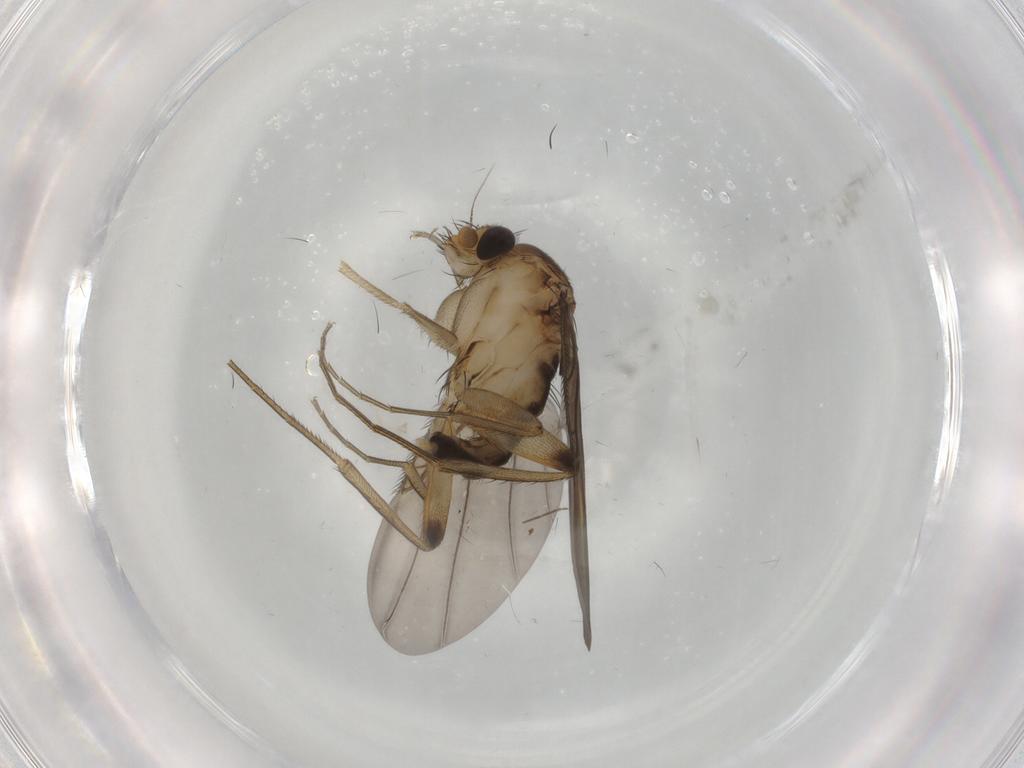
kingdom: Animalia
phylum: Arthropoda
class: Insecta
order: Diptera
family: Phoridae
